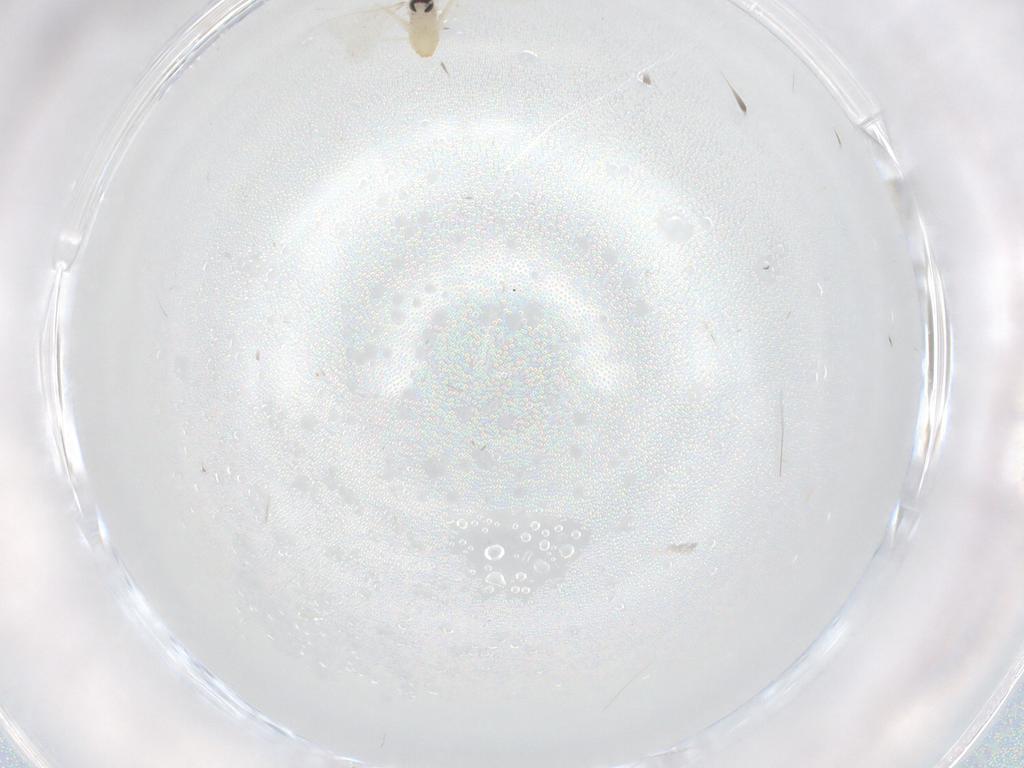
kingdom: Animalia
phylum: Arthropoda
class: Insecta
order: Diptera
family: Cecidomyiidae
